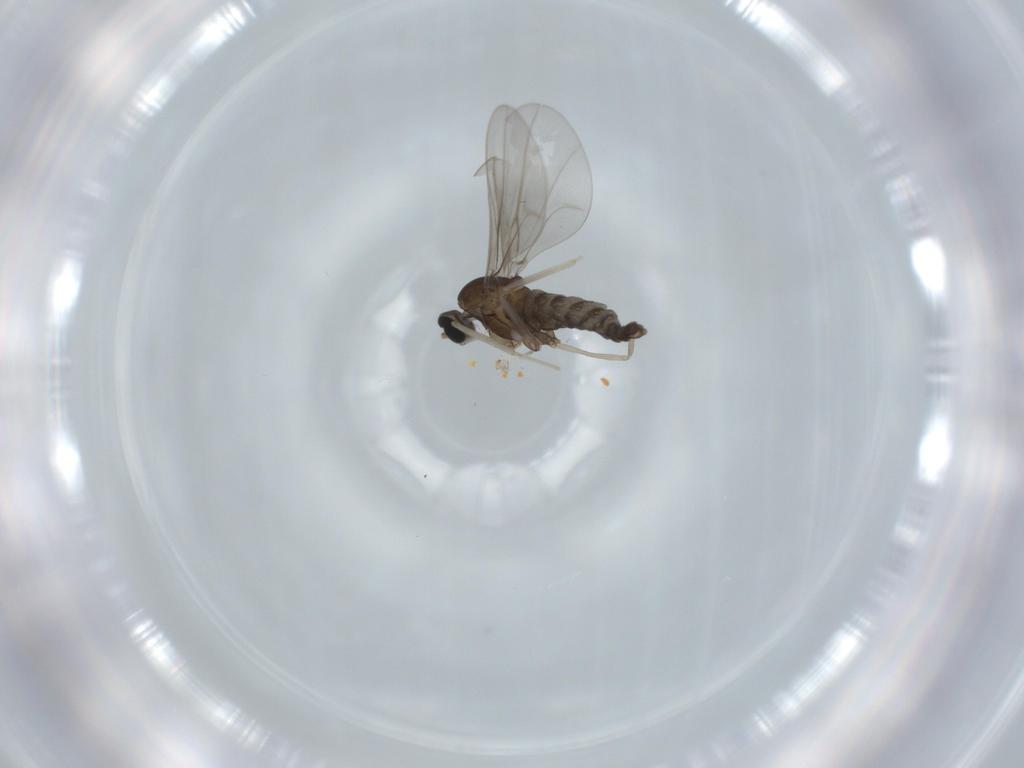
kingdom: Animalia
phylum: Arthropoda
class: Insecta
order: Diptera
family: Cecidomyiidae
